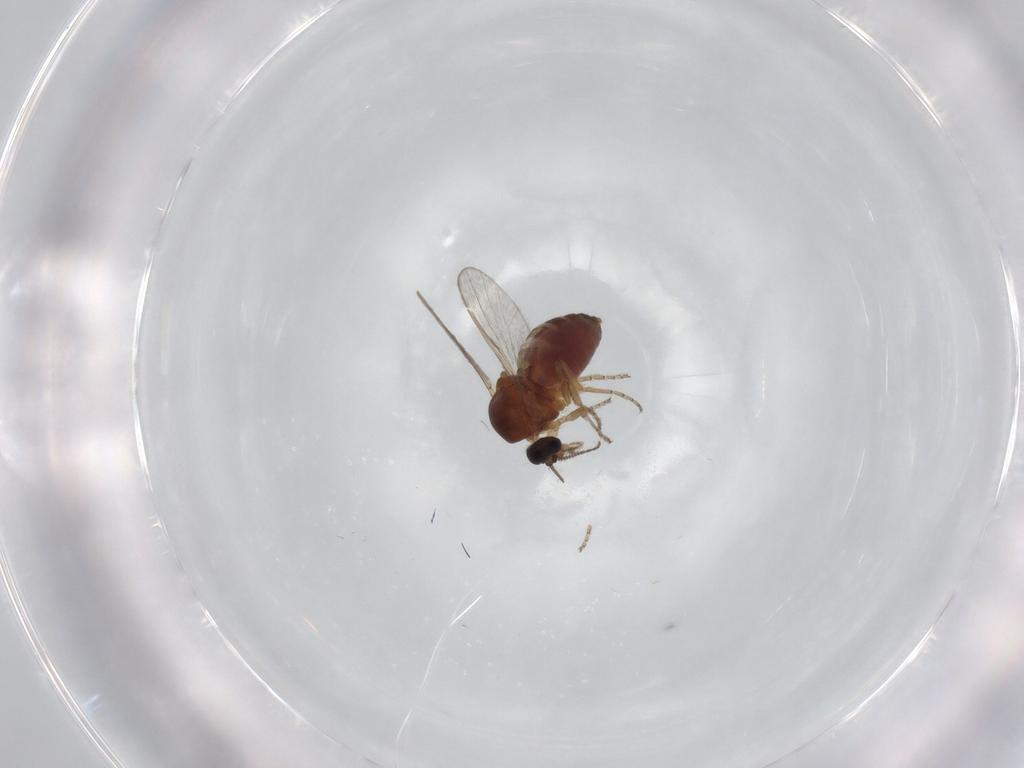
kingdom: Animalia
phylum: Arthropoda
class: Insecta
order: Diptera
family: Ceratopogonidae
